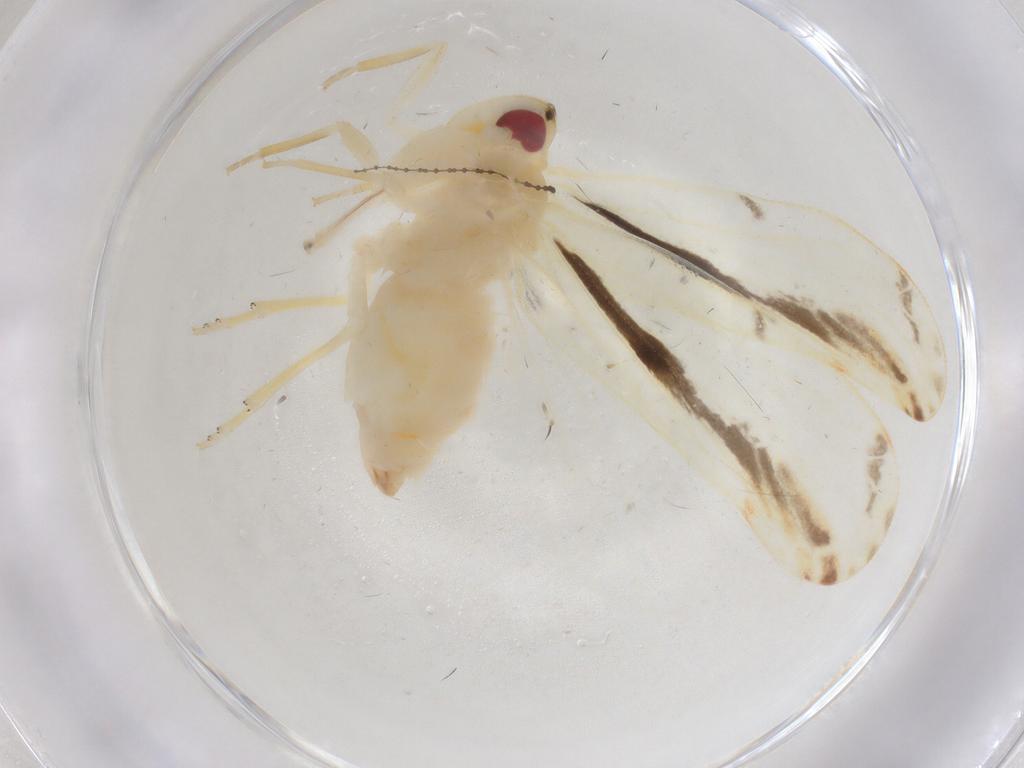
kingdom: Animalia
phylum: Arthropoda
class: Insecta
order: Hemiptera
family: Derbidae
